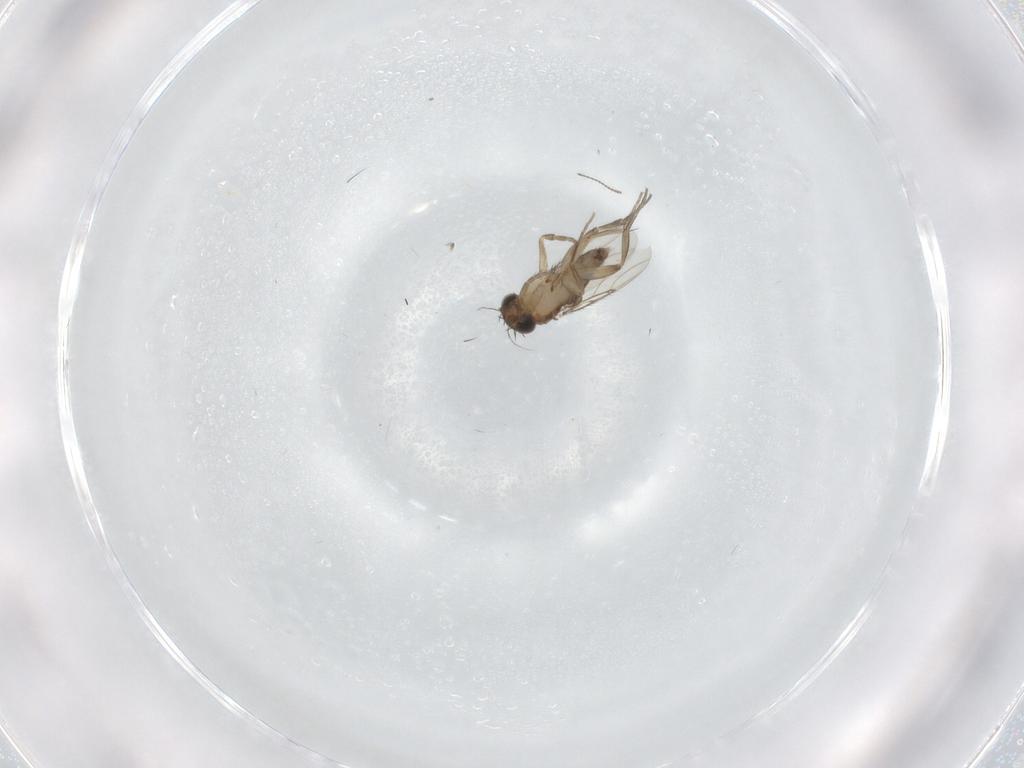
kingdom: Animalia
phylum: Arthropoda
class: Insecta
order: Diptera
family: Phoridae
